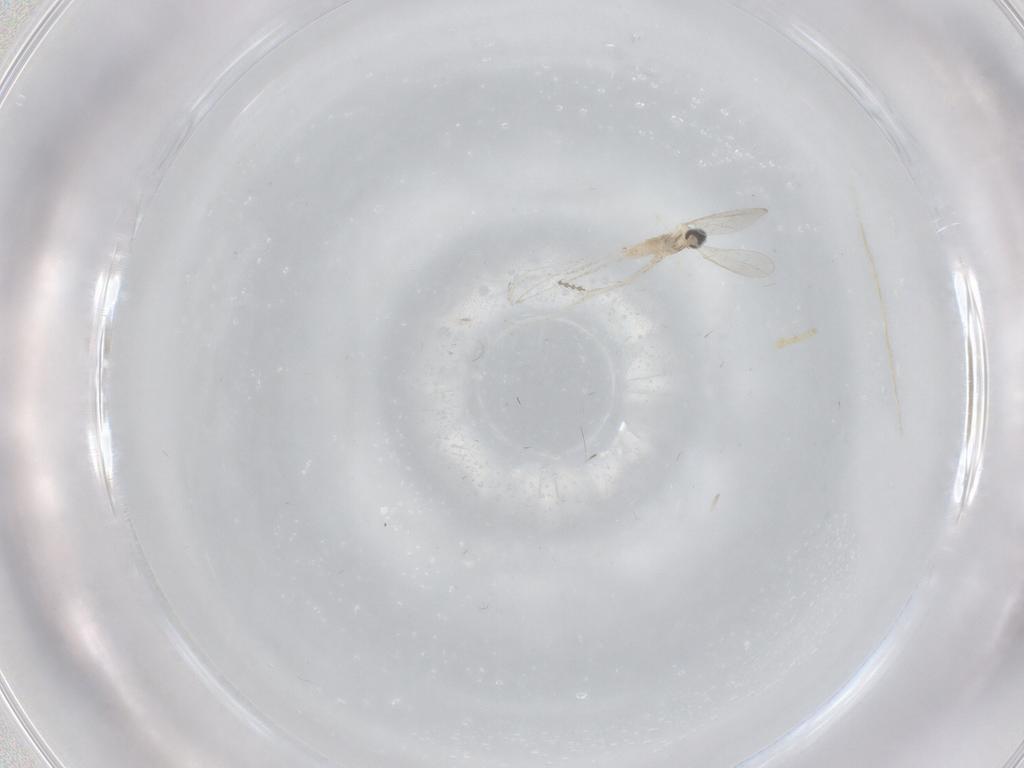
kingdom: Animalia
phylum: Arthropoda
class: Insecta
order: Diptera
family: Cecidomyiidae
